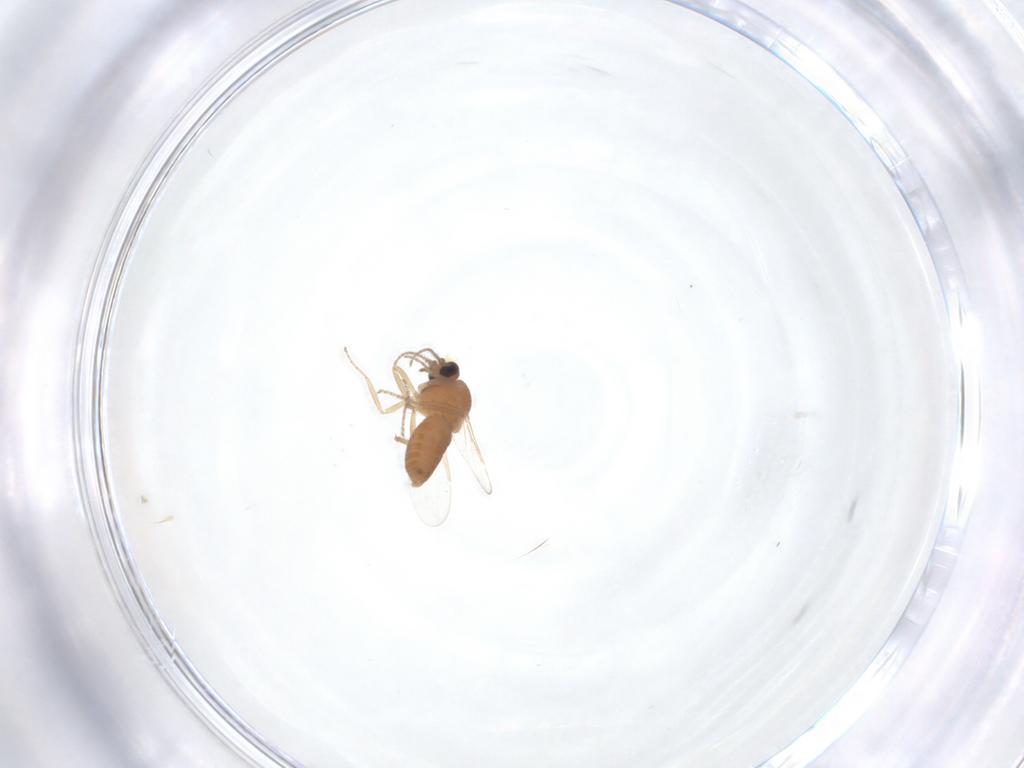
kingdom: Animalia
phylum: Arthropoda
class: Insecta
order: Diptera
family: Ceratopogonidae
